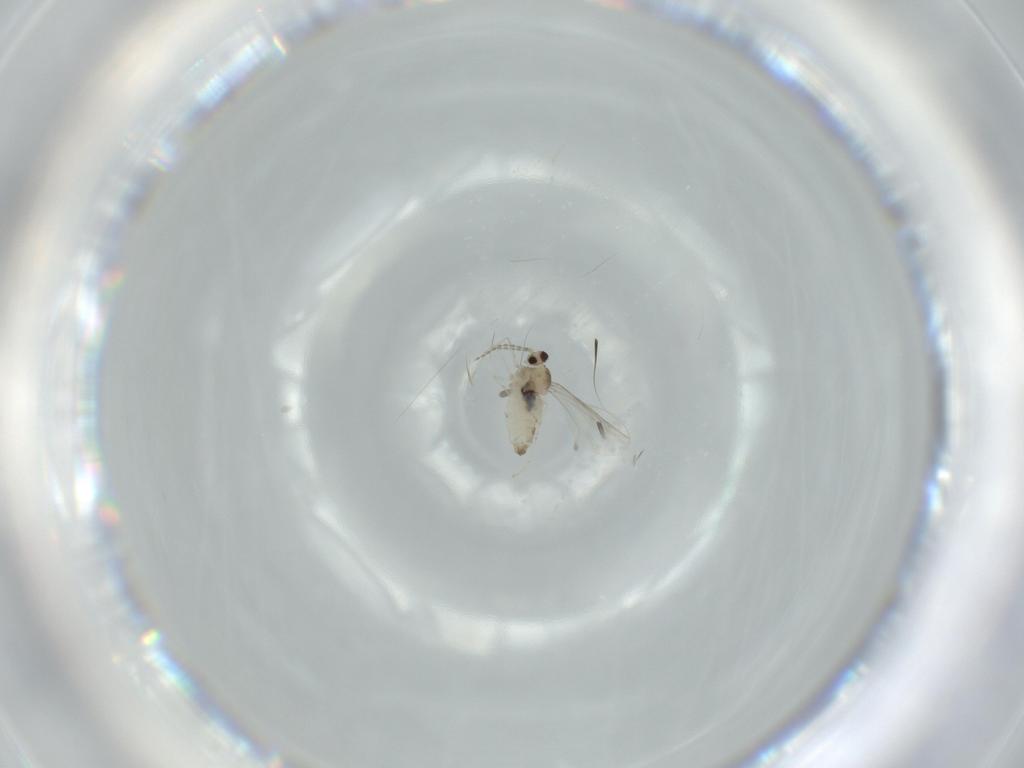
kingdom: Animalia
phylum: Arthropoda
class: Insecta
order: Diptera
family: Cecidomyiidae
